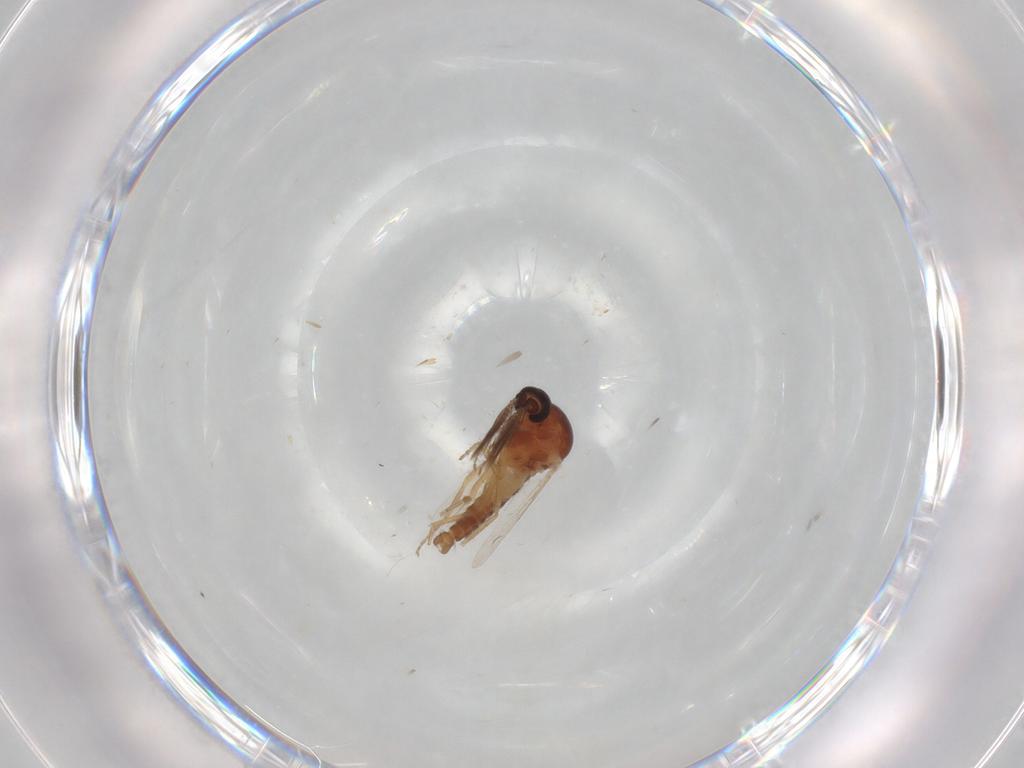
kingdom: Animalia
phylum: Arthropoda
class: Insecta
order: Diptera
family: Ceratopogonidae
